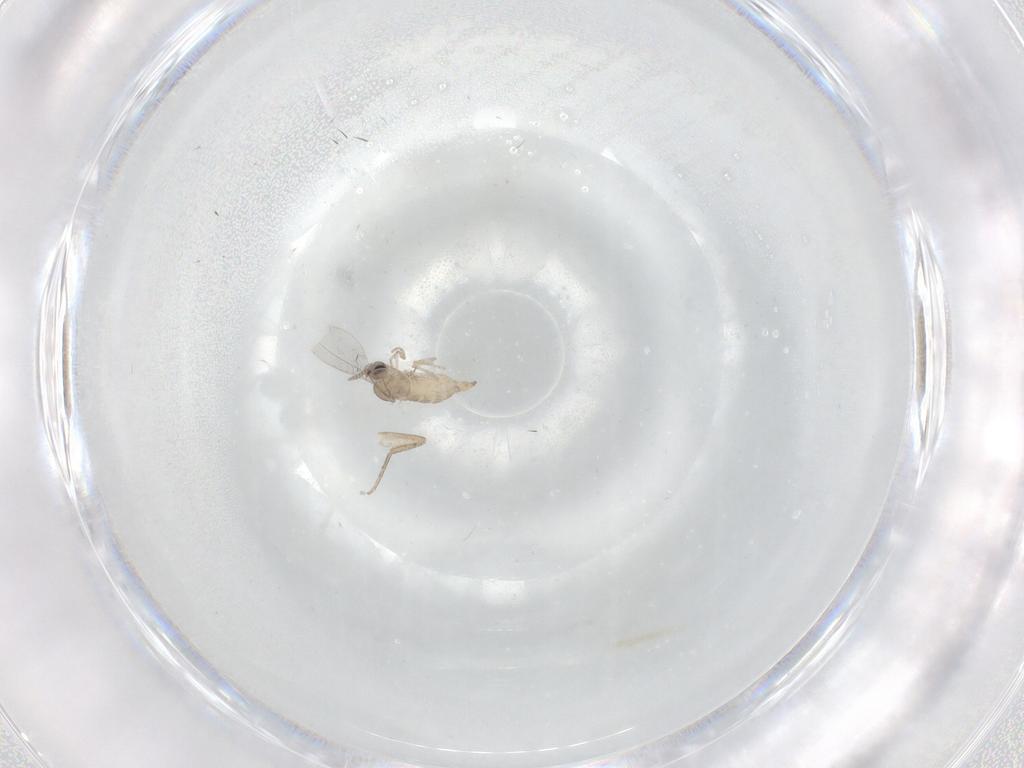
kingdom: Animalia
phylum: Arthropoda
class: Insecta
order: Diptera
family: Cecidomyiidae
